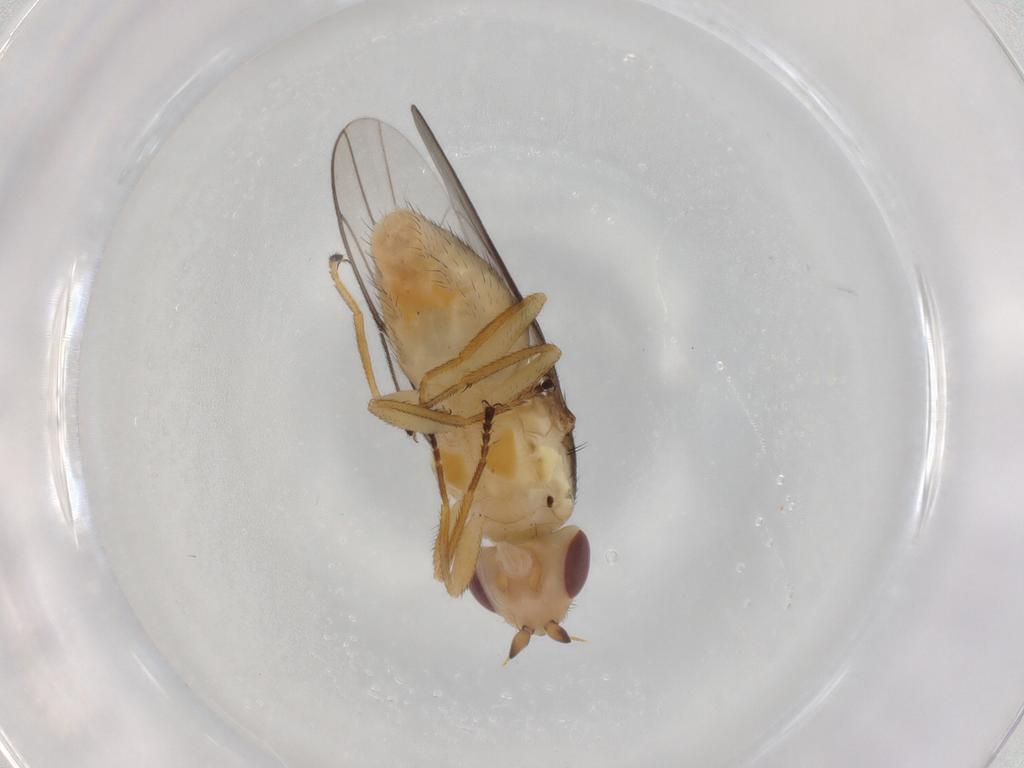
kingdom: Animalia
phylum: Arthropoda
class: Insecta
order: Diptera
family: Chloropidae
